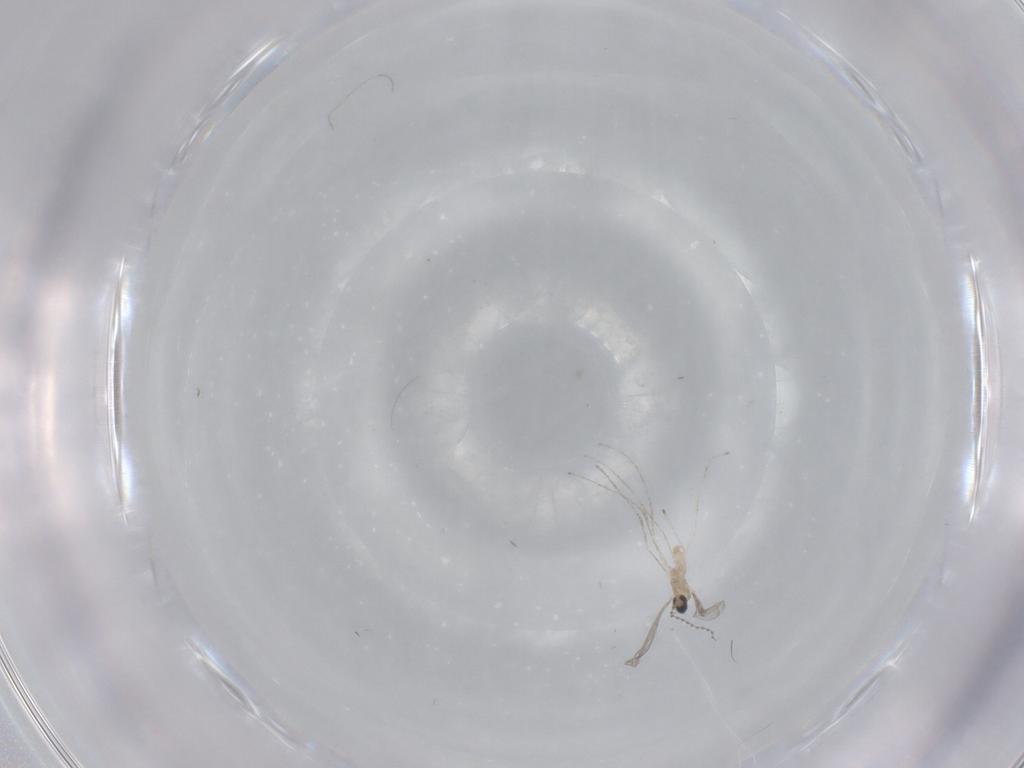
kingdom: Animalia
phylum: Arthropoda
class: Insecta
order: Diptera
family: Cecidomyiidae
